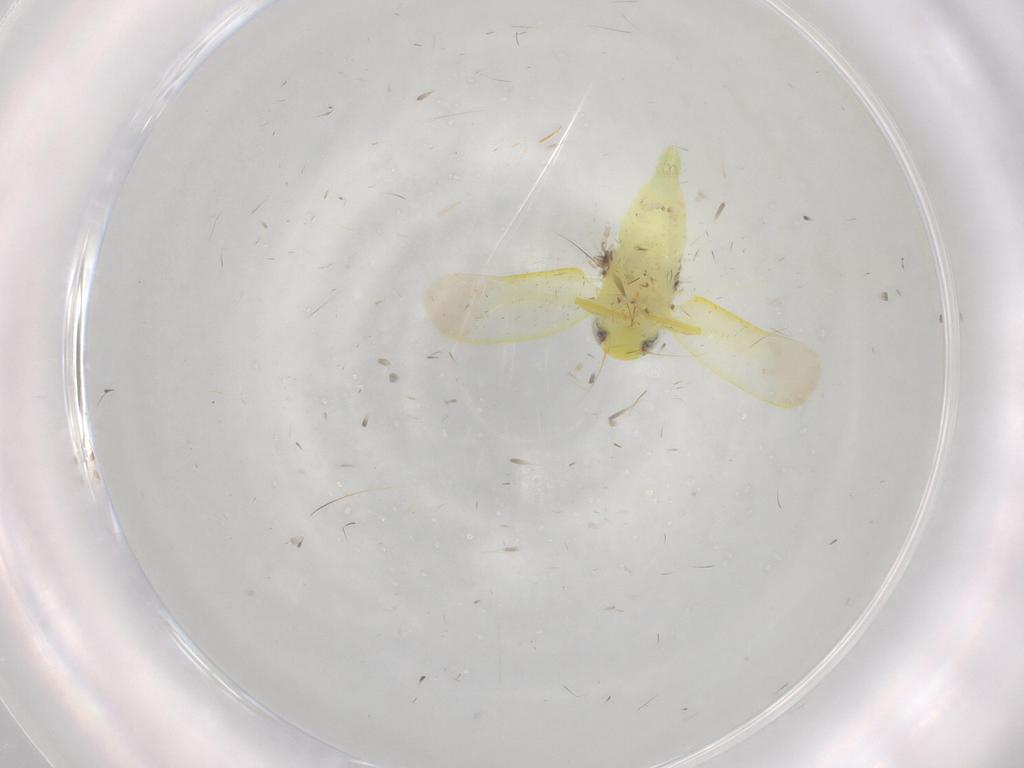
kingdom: Animalia
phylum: Arthropoda
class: Insecta
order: Hemiptera
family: Cicadellidae
